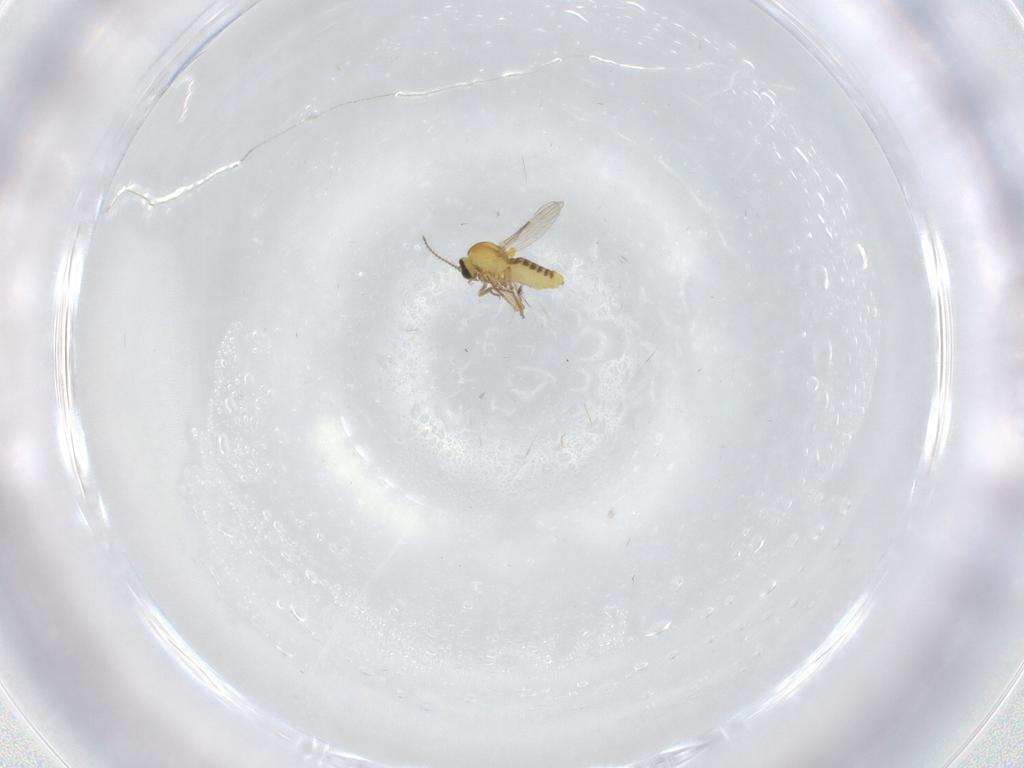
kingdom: Animalia
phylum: Arthropoda
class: Insecta
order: Diptera
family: Ceratopogonidae
